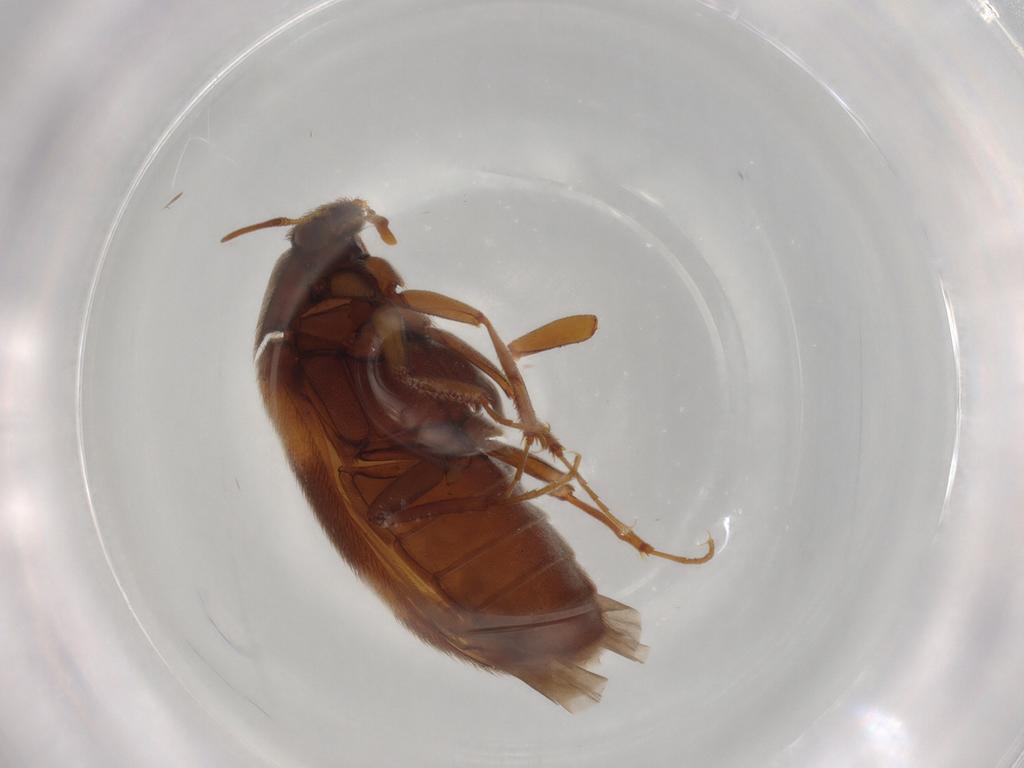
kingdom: Animalia
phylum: Arthropoda
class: Insecta
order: Coleoptera
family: Dermestidae
